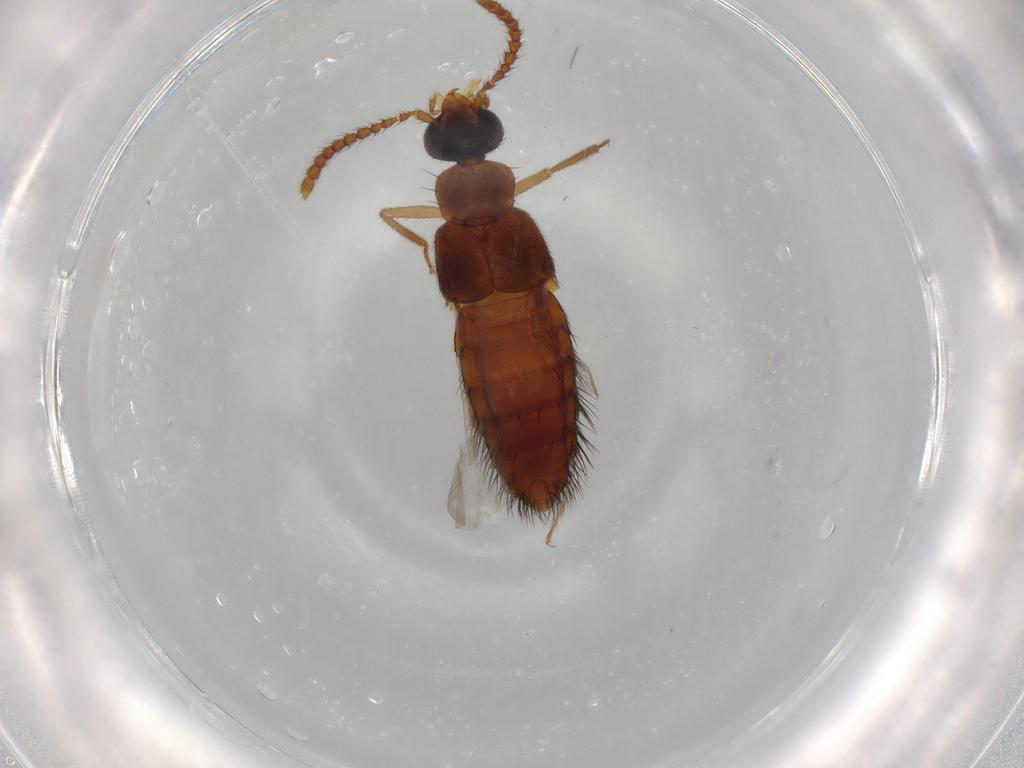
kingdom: Animalia
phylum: Arthropoda
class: Insecta
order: Coleoptera
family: Staphylinidae
